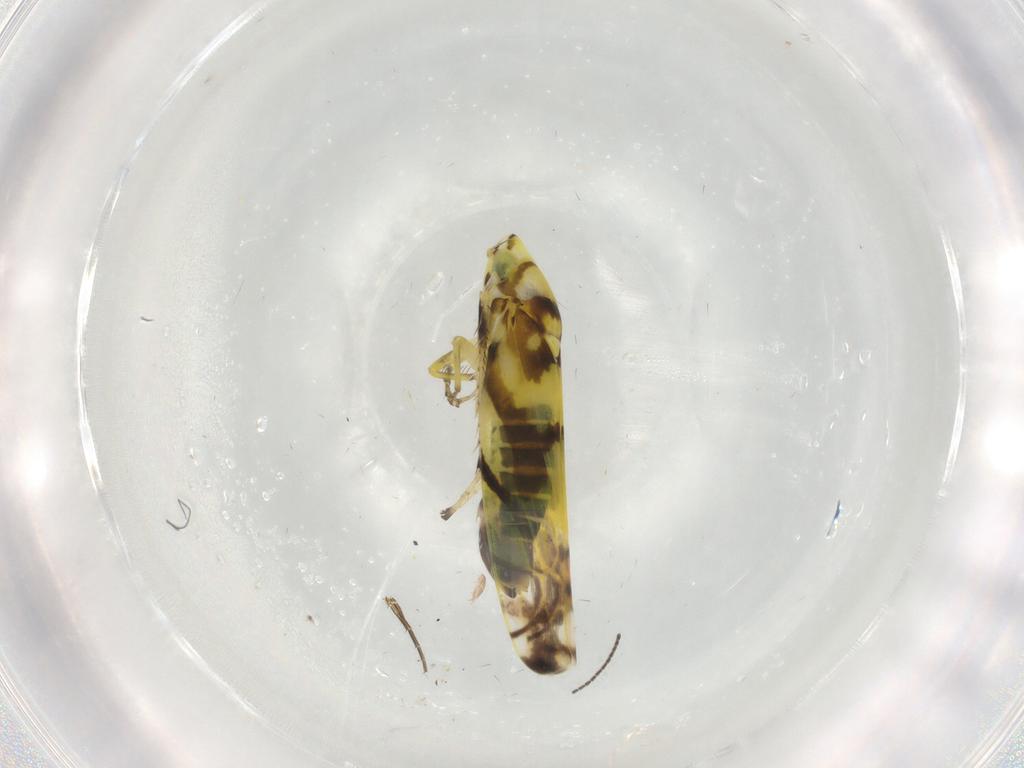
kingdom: Animalia
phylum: Arthropoda
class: Insecta
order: Hemiptera
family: Cicadellidae
